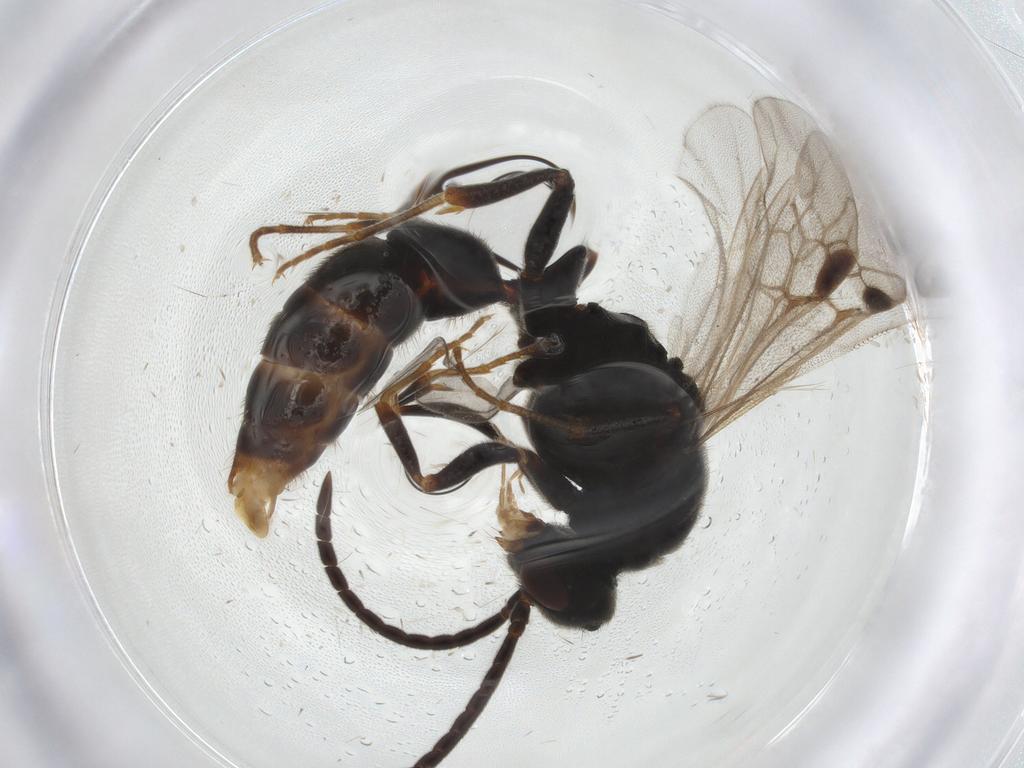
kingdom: Animalia
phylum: Arthropoda
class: Insecta
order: Hymenoptera
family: Formicidae
